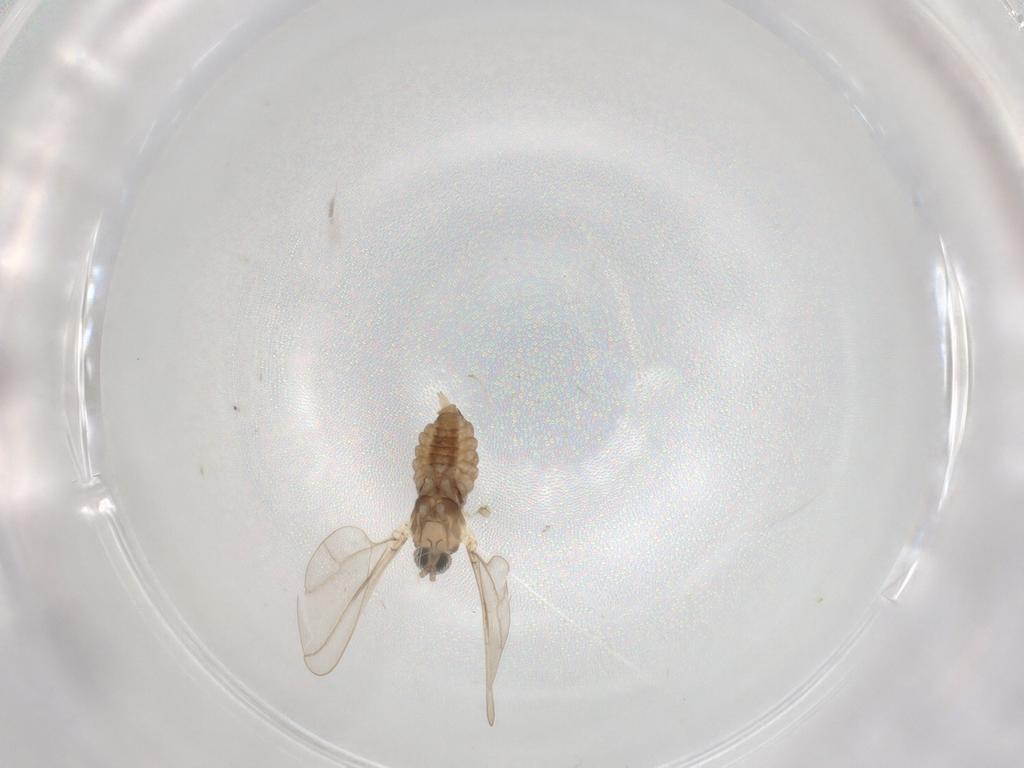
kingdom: Animalia
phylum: Arthropoda
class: Insecta
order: Diptera
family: Cecidomyiidae
